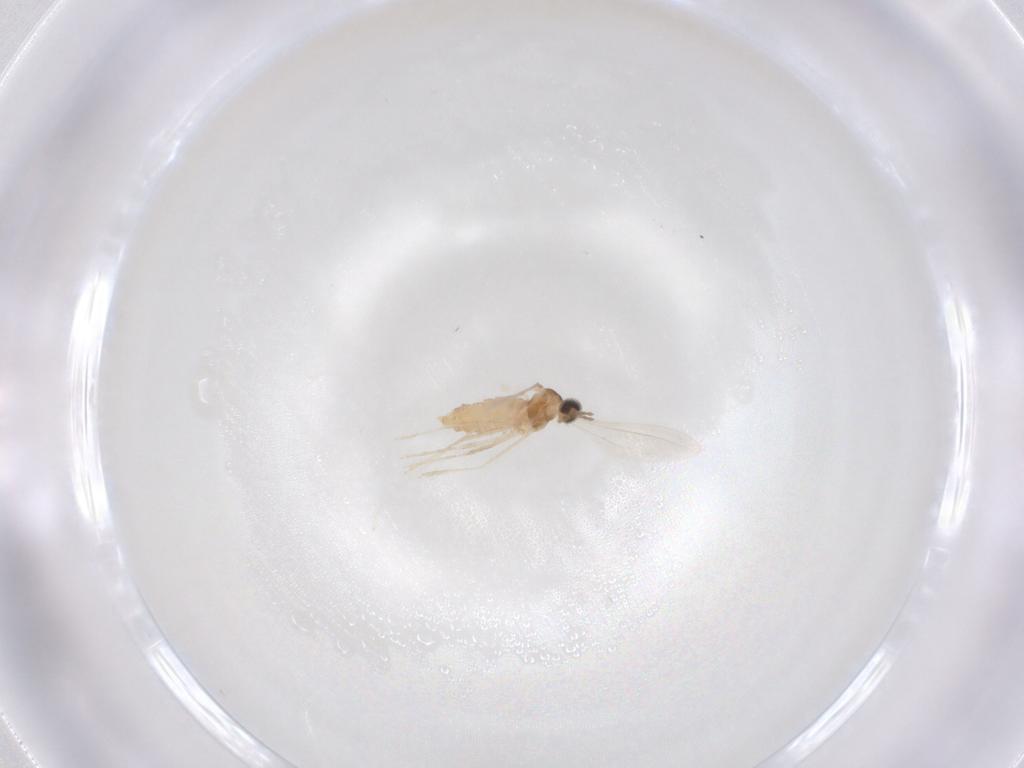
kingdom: Animalia
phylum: Arthropoda
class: Insecta
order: Diptera
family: Cecidomyiidae
